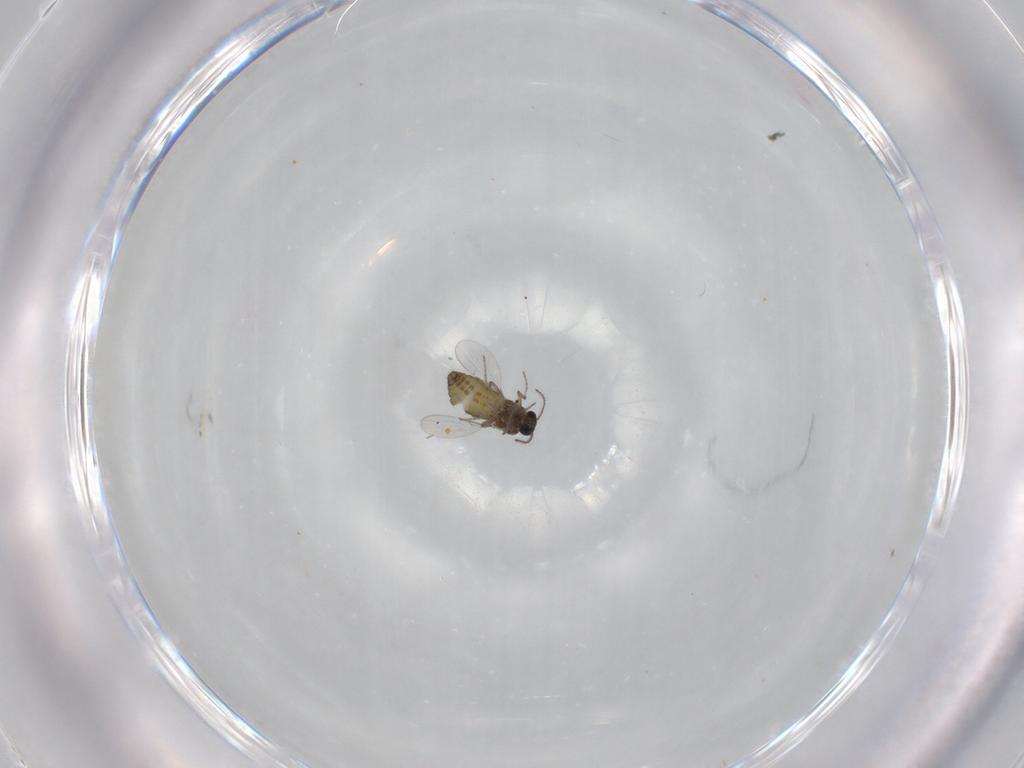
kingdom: Animalia
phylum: Arthropoda
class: Insecta
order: Diptera
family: Ceratopogonidae
